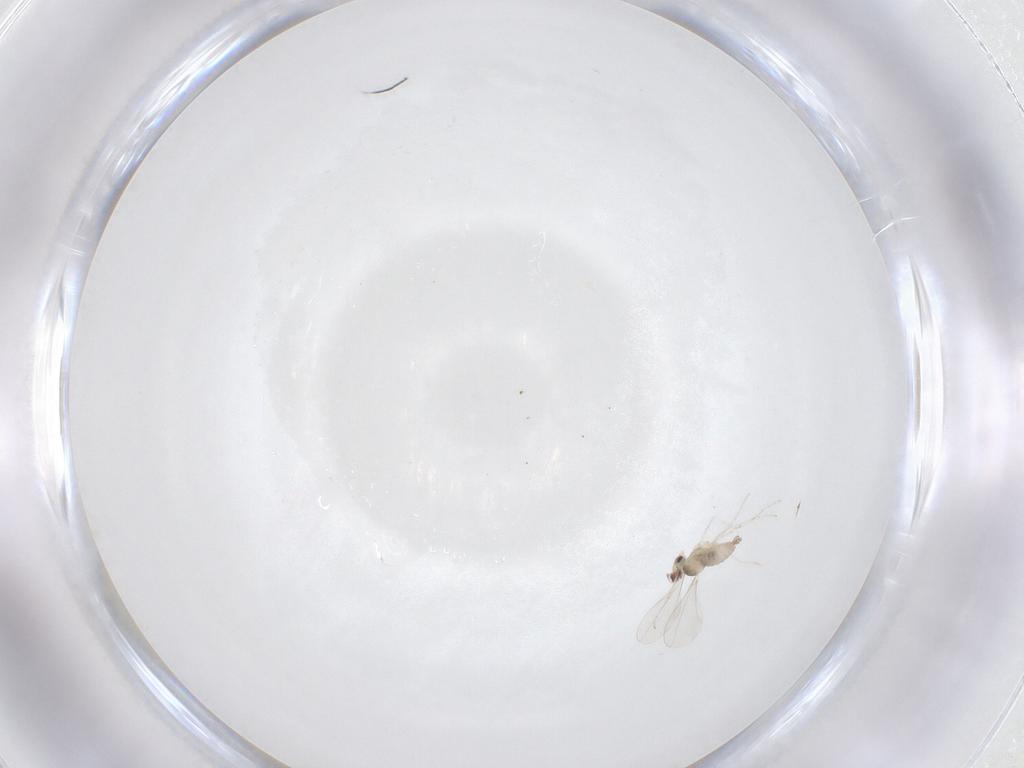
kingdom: Animalia
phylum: Arthropoda
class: Insecta
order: Diptera
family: Cecidomyiidae
